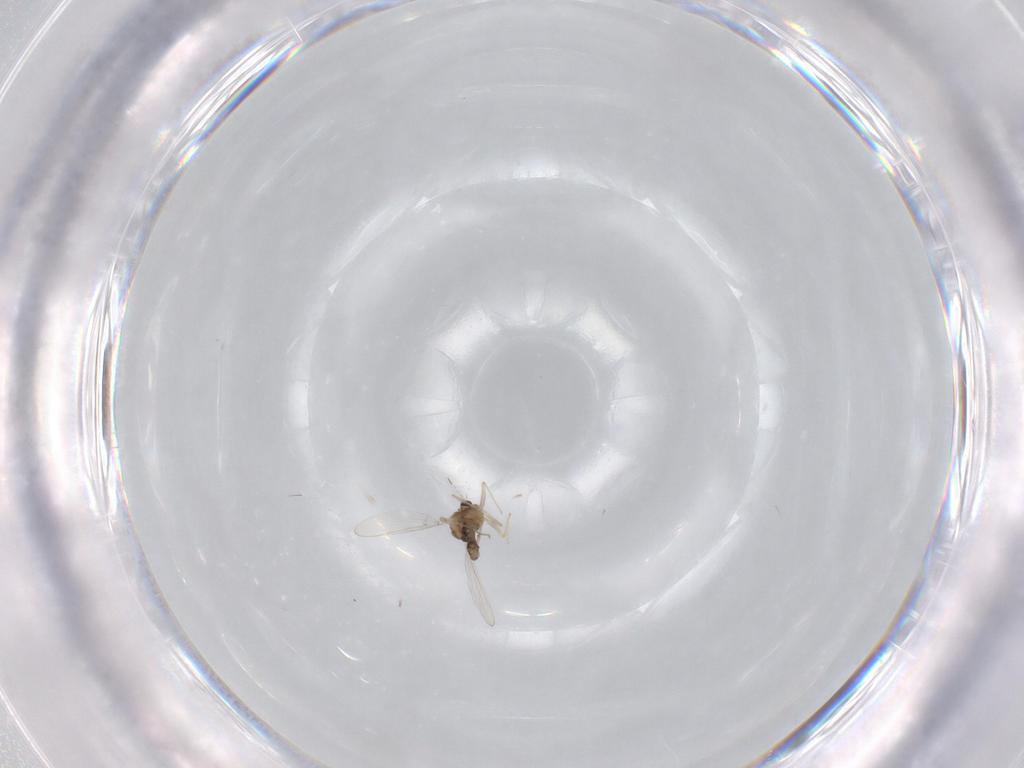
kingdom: Animalia
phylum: Arthropoda
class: Insecta
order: Diptera
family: Chironomidae
